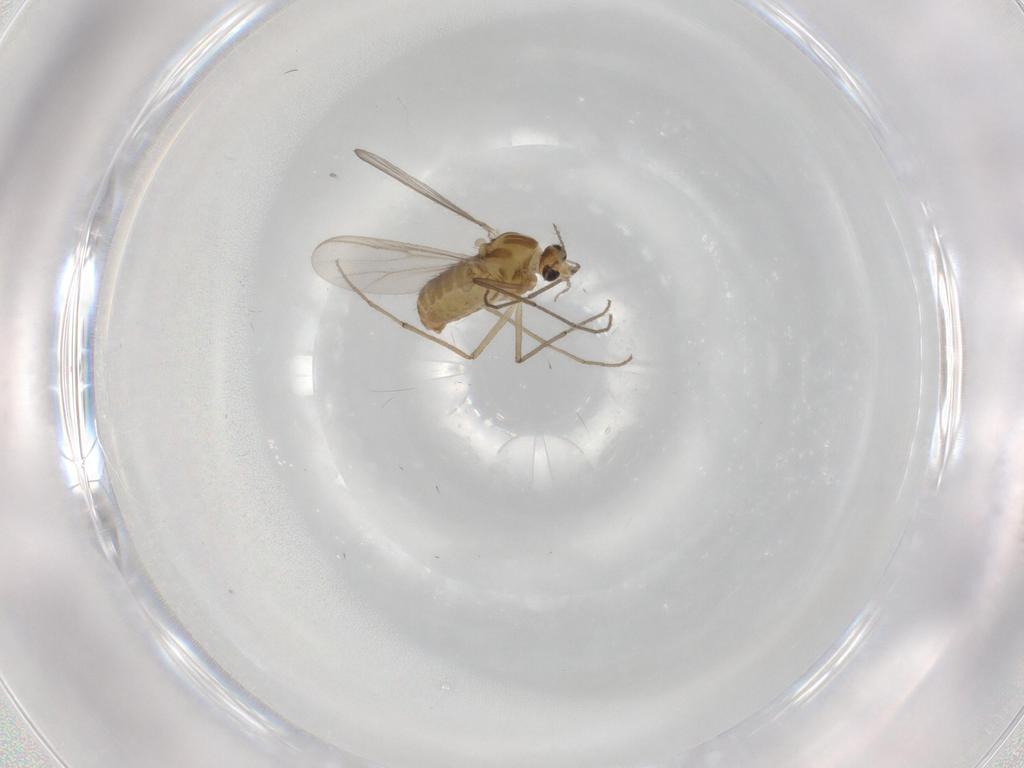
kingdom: Animalia
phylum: Arthropoda
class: Insecta
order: Diptera
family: Chironomidae
